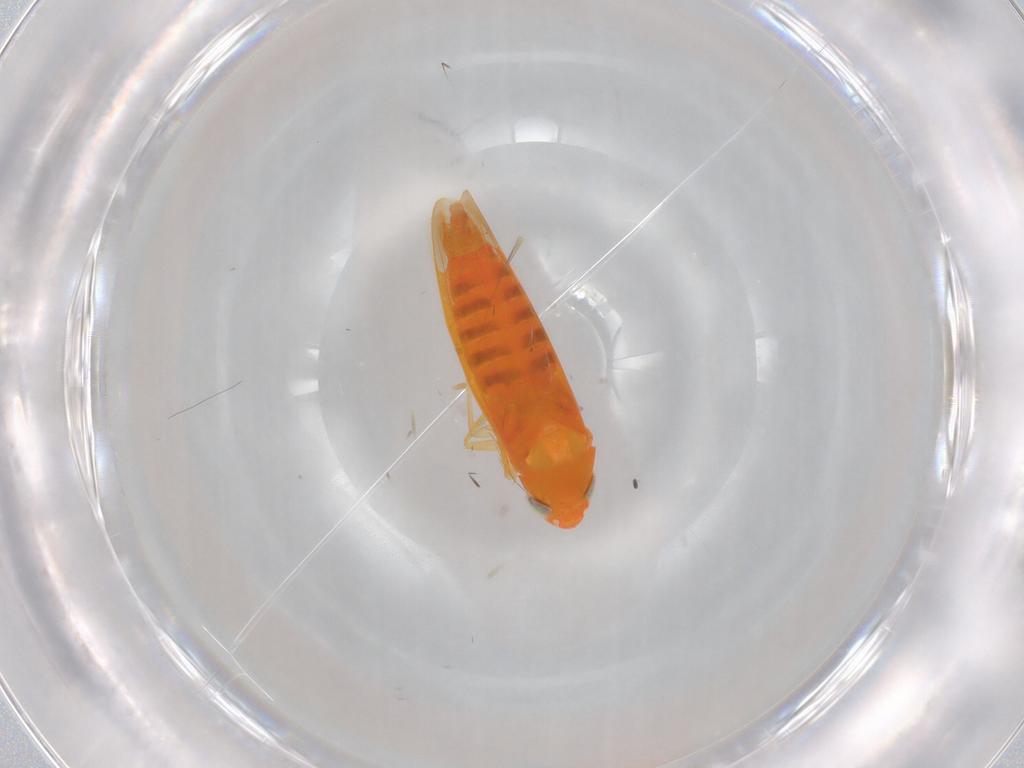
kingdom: Animalia
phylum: Arthropoda
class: Insecta
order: Hemiptera
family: Cicadellidae
